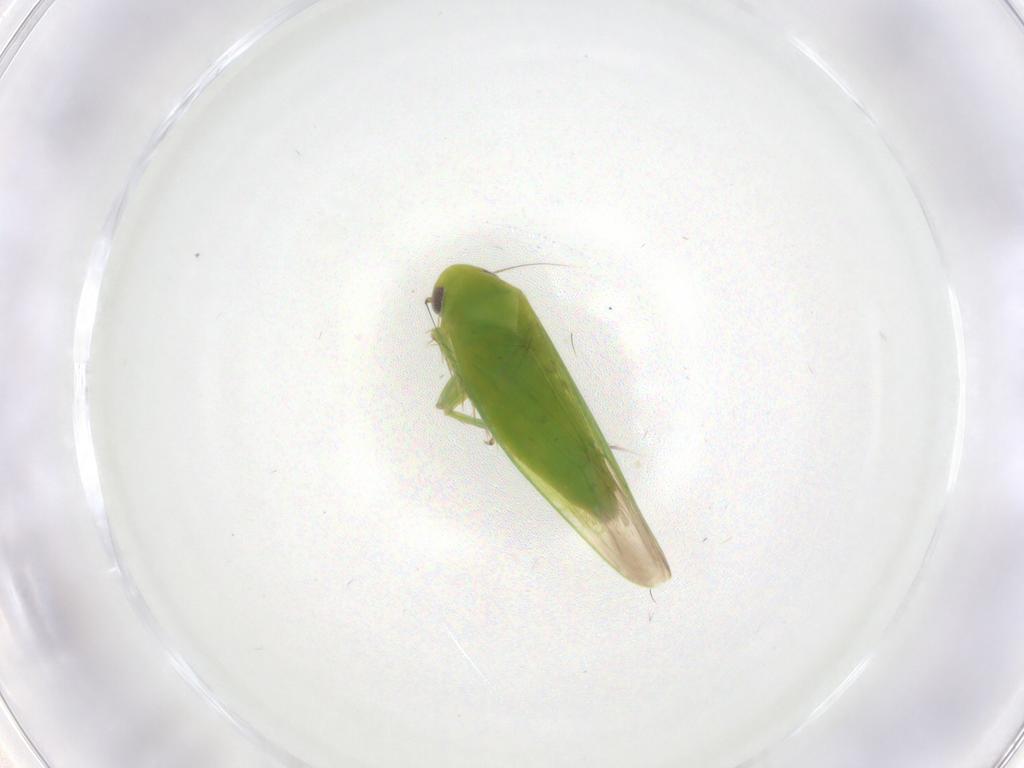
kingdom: Animalia
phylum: Arthropoda
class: Insecta
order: Hemiptera
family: Cicadellidae
